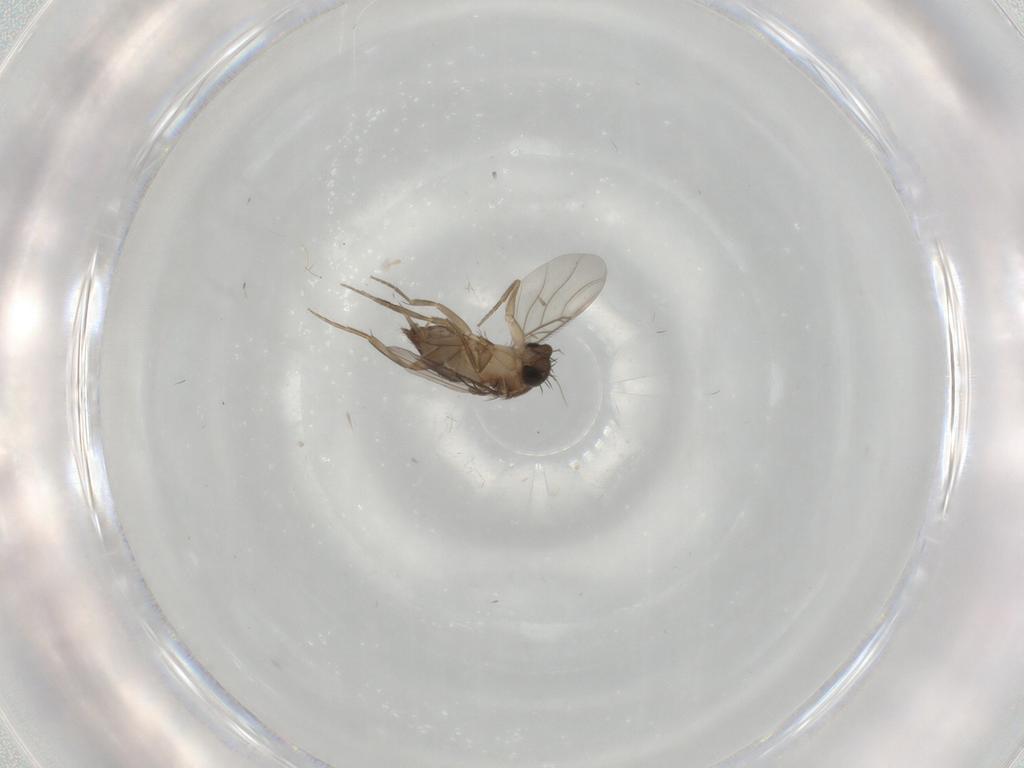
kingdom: Animalia
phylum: Arthropoda
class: Insecta
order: Diptera
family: Phoridae
